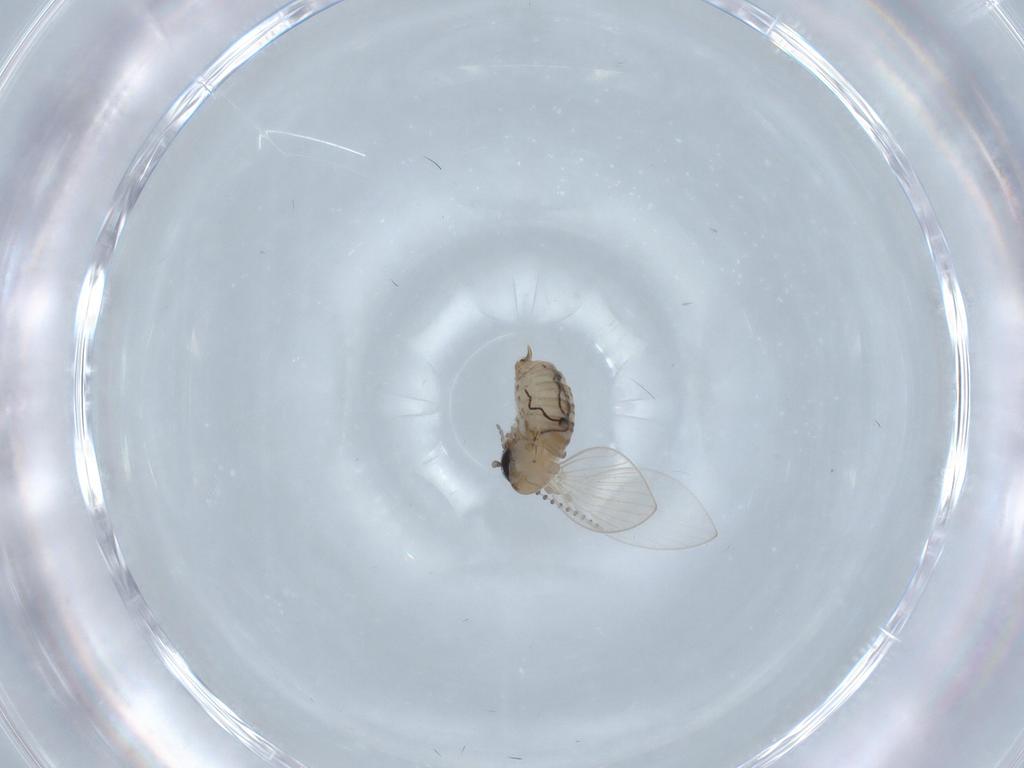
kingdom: Animalia
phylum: Arthropoda
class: Insecta
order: Diptera
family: Psychodidae
